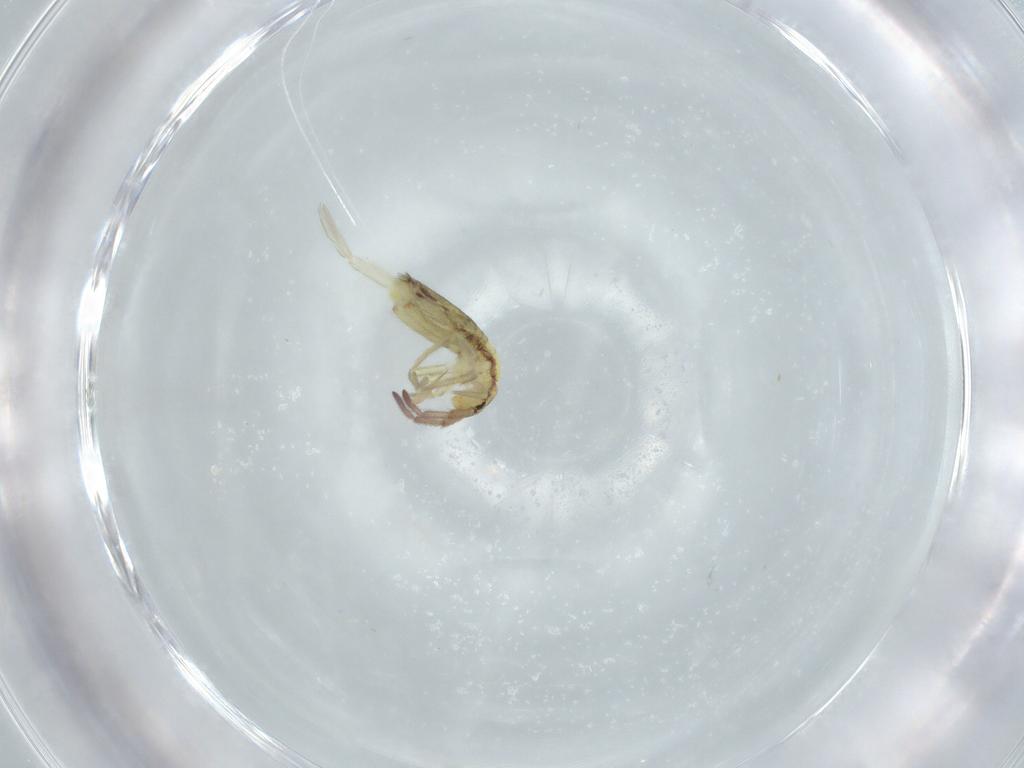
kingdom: Animalia
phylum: Arthropoda
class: Collembola
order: Entomobryomorpha
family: Entomobryidae
